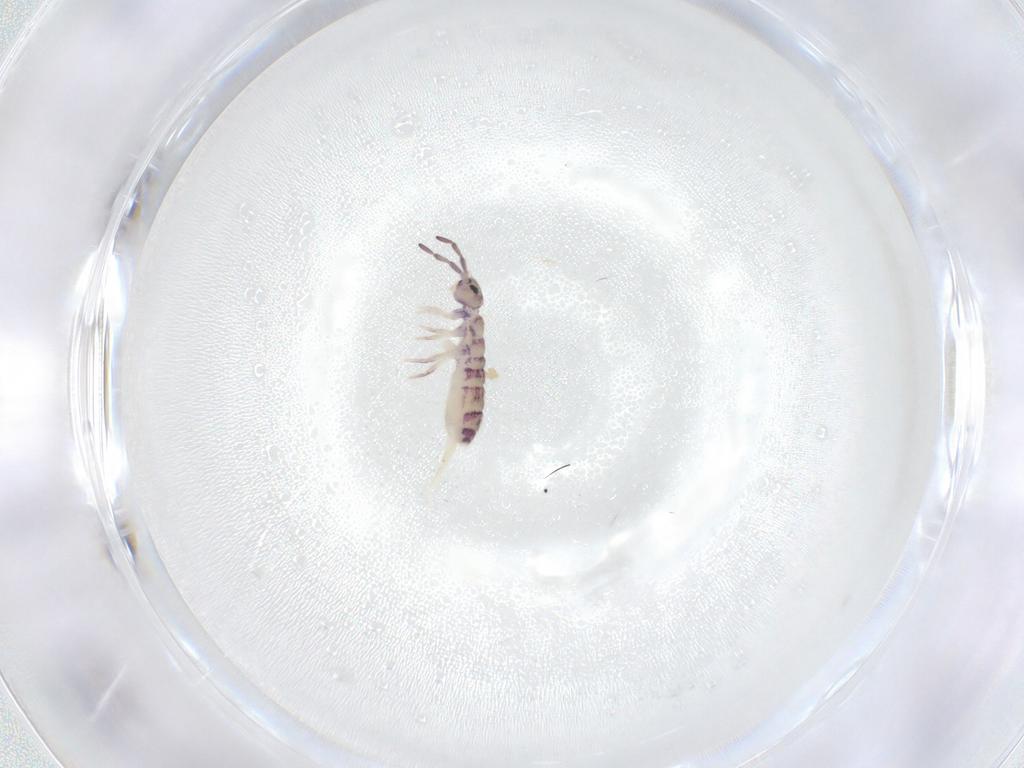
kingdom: Animalia
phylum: Arthropoda
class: Collembola
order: Entomobryomorpha
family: Isotomidae
